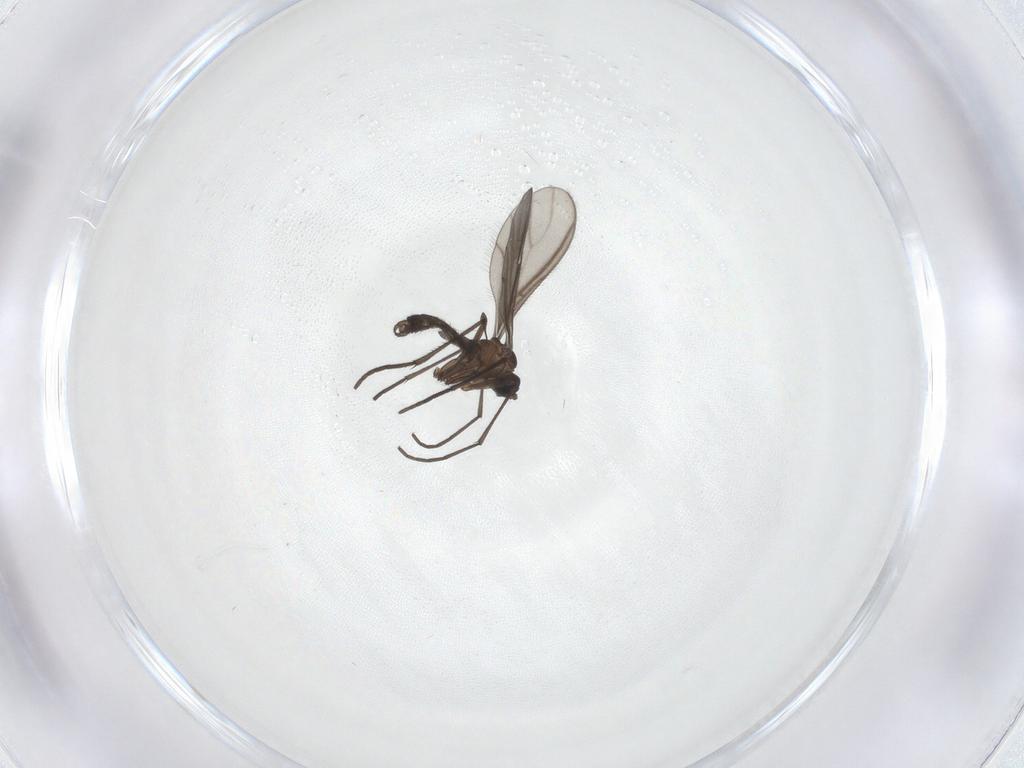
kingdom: Animalia
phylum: Arthropoda
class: Insecta
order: Diptera
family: Sciaridae
